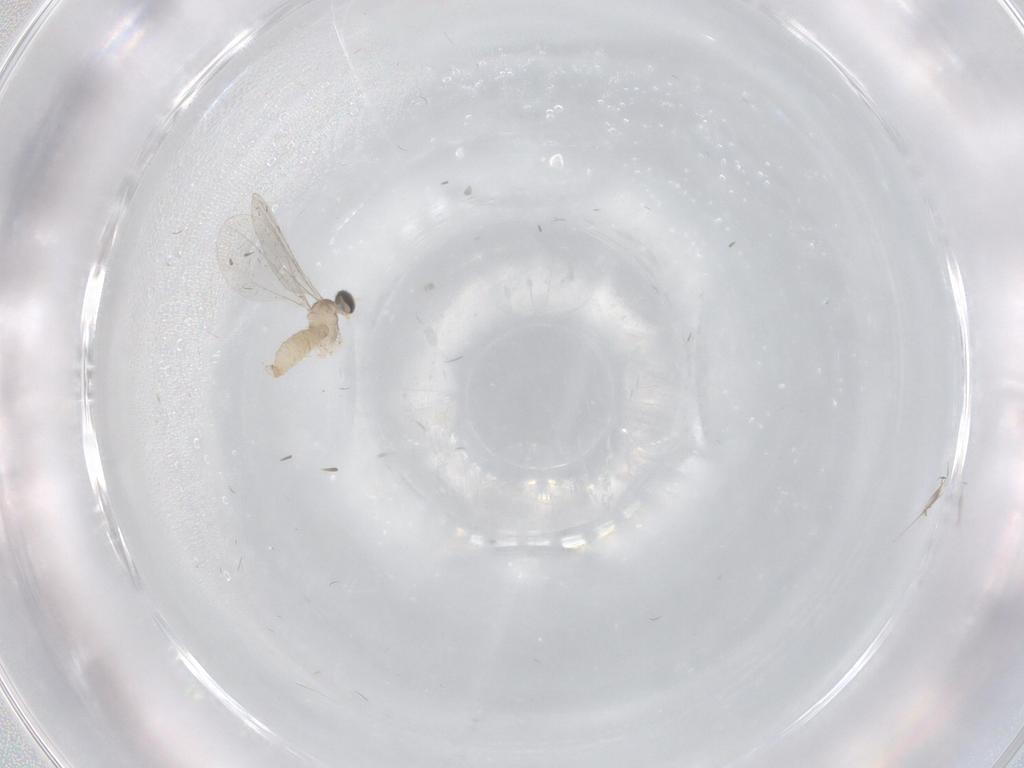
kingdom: Animalia
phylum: Arthropoda
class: Insecta
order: Diptera
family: Cecidomyiidae
